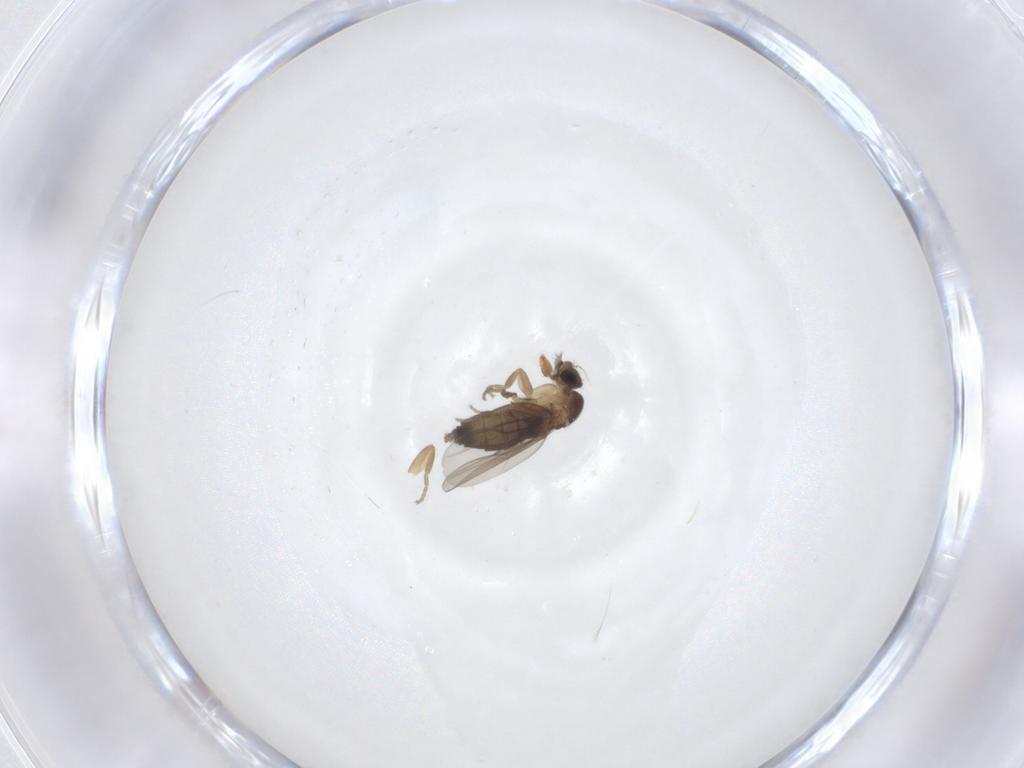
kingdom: Animalia
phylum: Arthropoda
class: Insecta
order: Diptera
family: Phoridae
